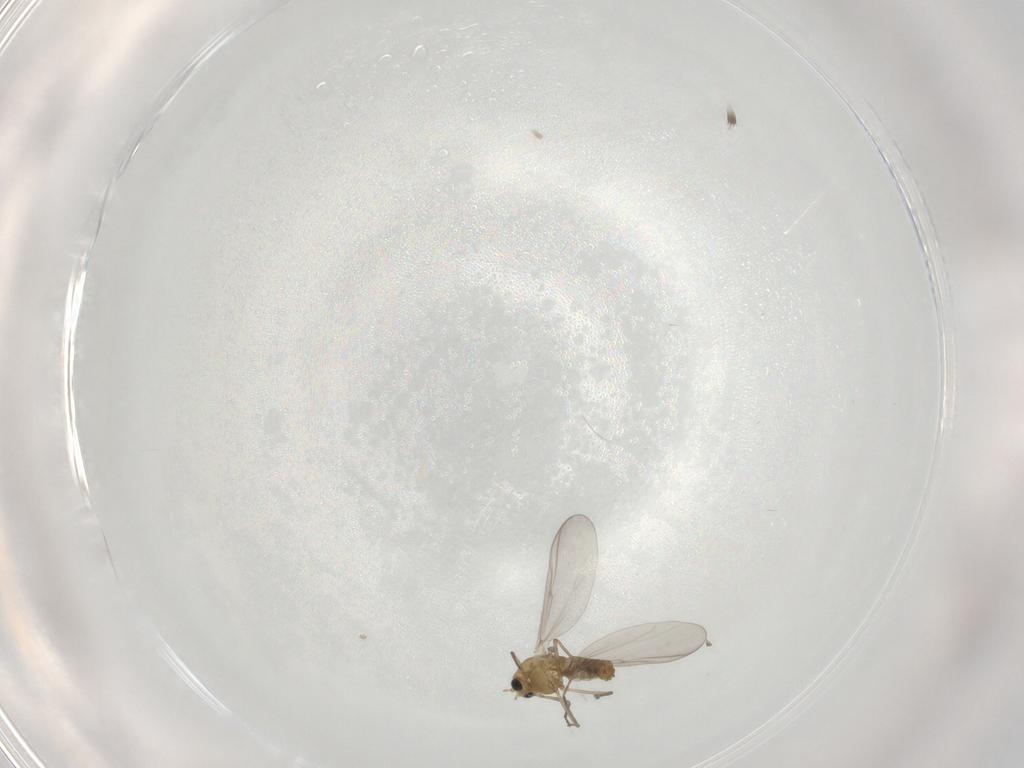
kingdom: Animalia
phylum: Arthropoda
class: Insecta
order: Diptera
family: Chironomidae
